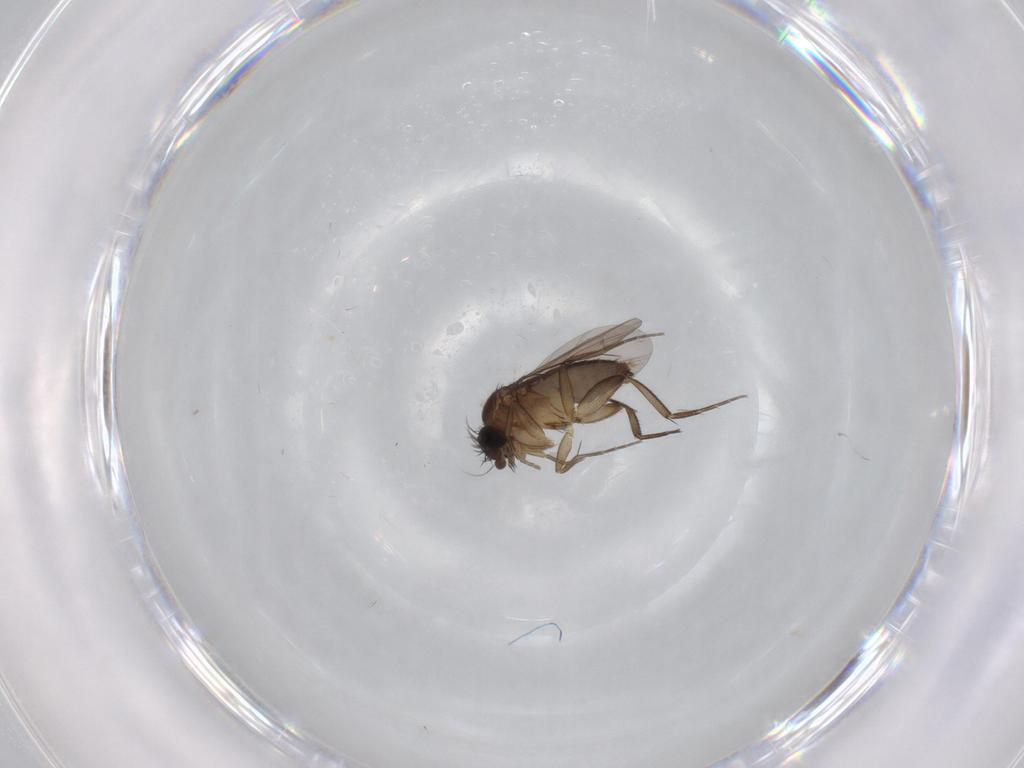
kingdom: Animalia
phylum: Arthropoda
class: Insecta
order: Diptera
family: Phoridae
